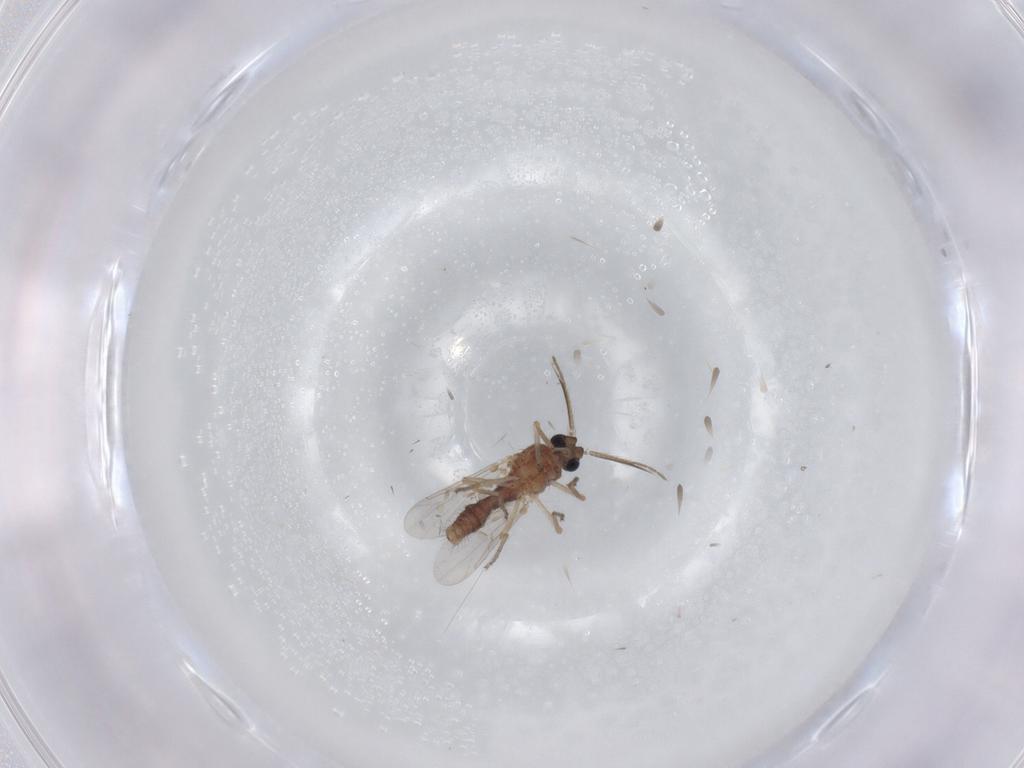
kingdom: Animalia
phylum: Arthropoda
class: Insecta
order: Diptera
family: Ceratopogonidae
